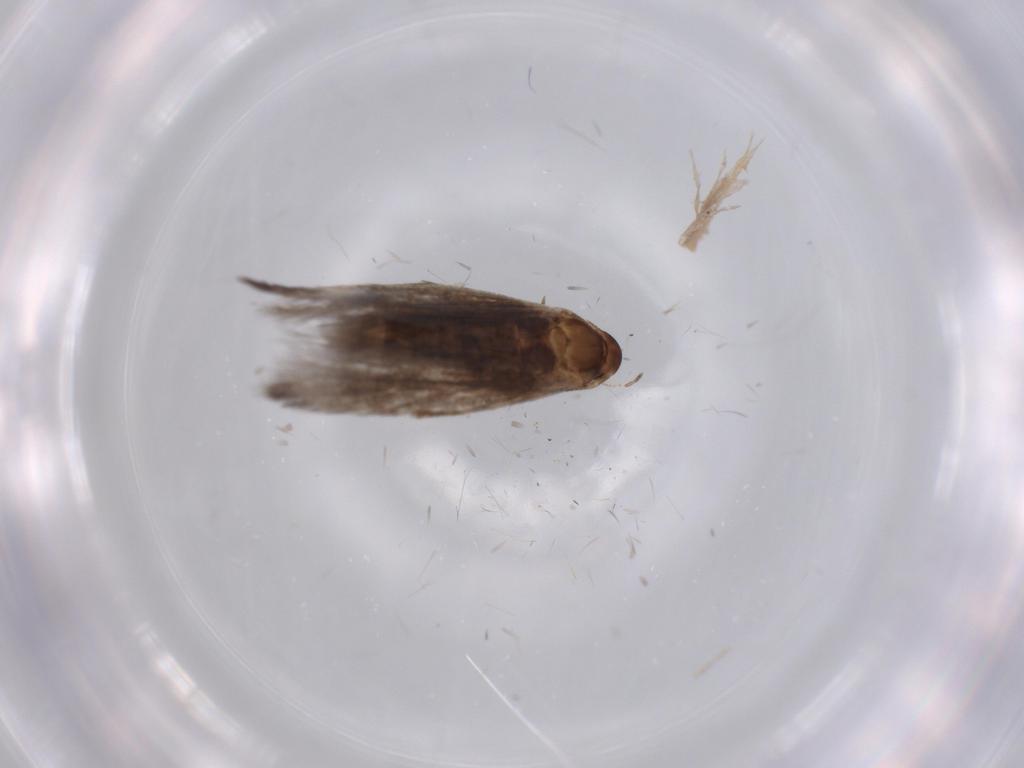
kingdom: Animalia
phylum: Arthropoda
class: Insecta
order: Lepidoptera
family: Gelechiidae
